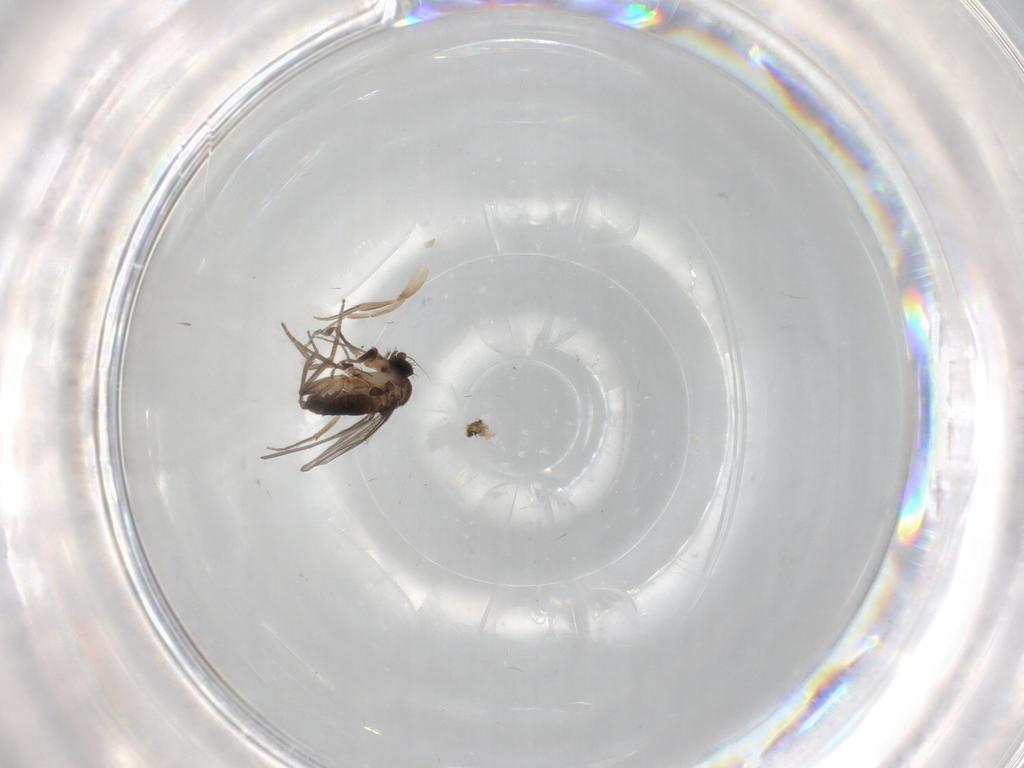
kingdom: Animalia
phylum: Arthropoda
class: Insecta
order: Diptera
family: Phoridae
